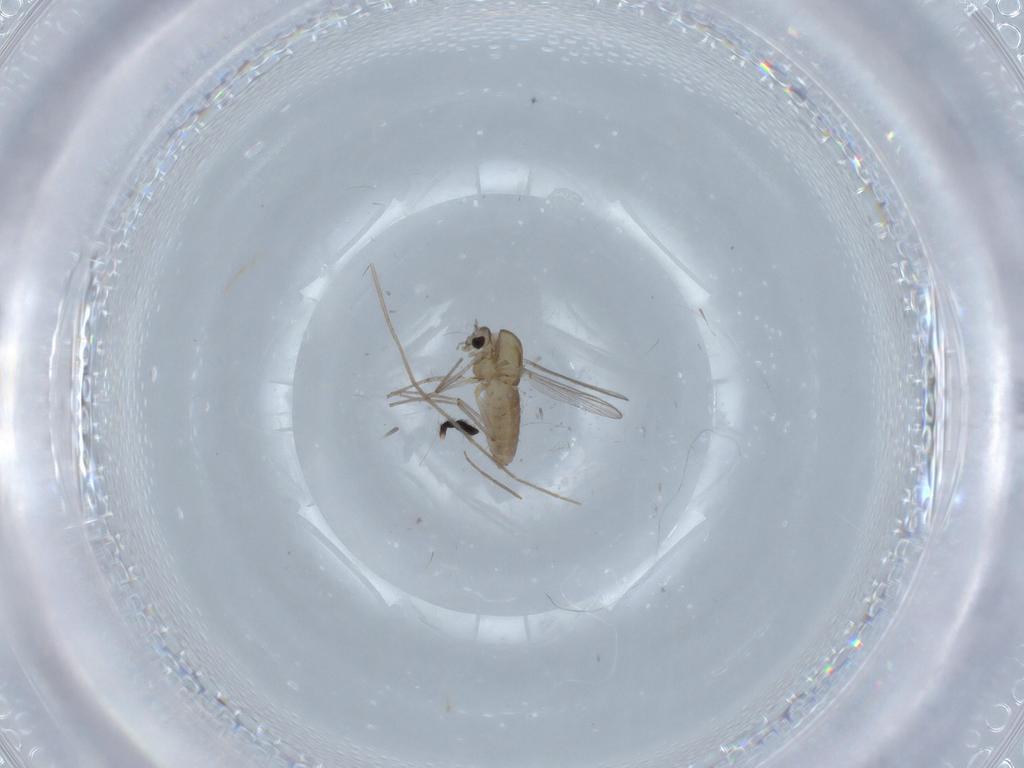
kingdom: Animalia
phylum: Arthropoda
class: Insecta
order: Diptera
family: Chironomidae
